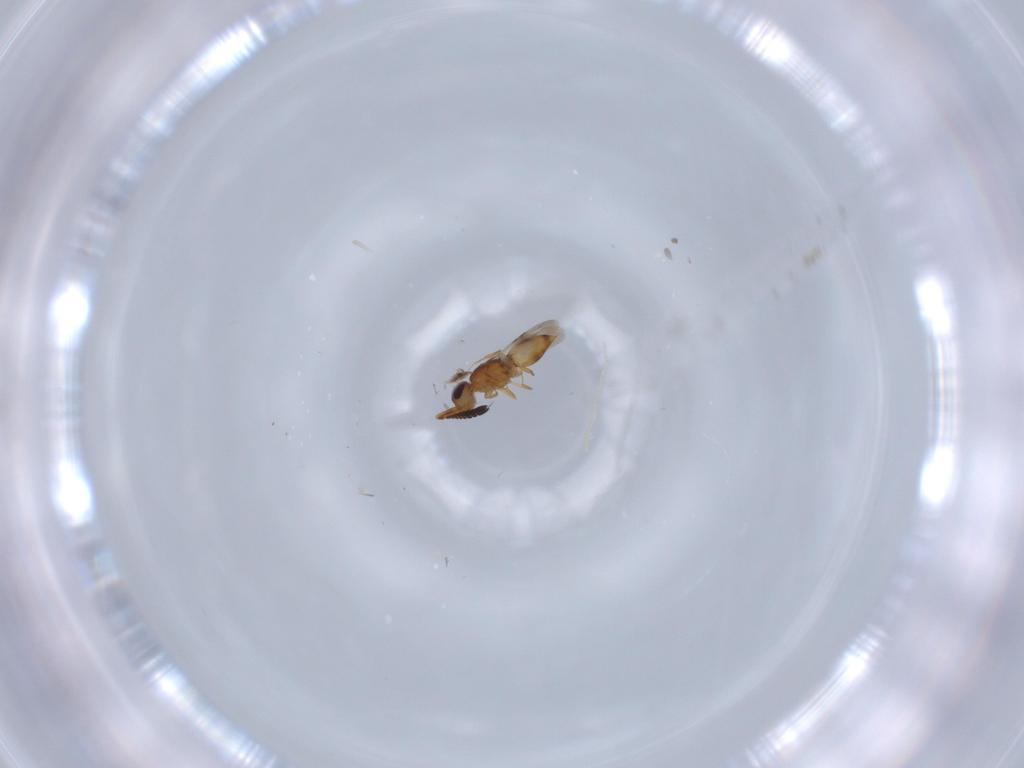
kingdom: Animalia
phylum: Arthropoda
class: Insecta
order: Hymenoptera
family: Ceraphronidae
